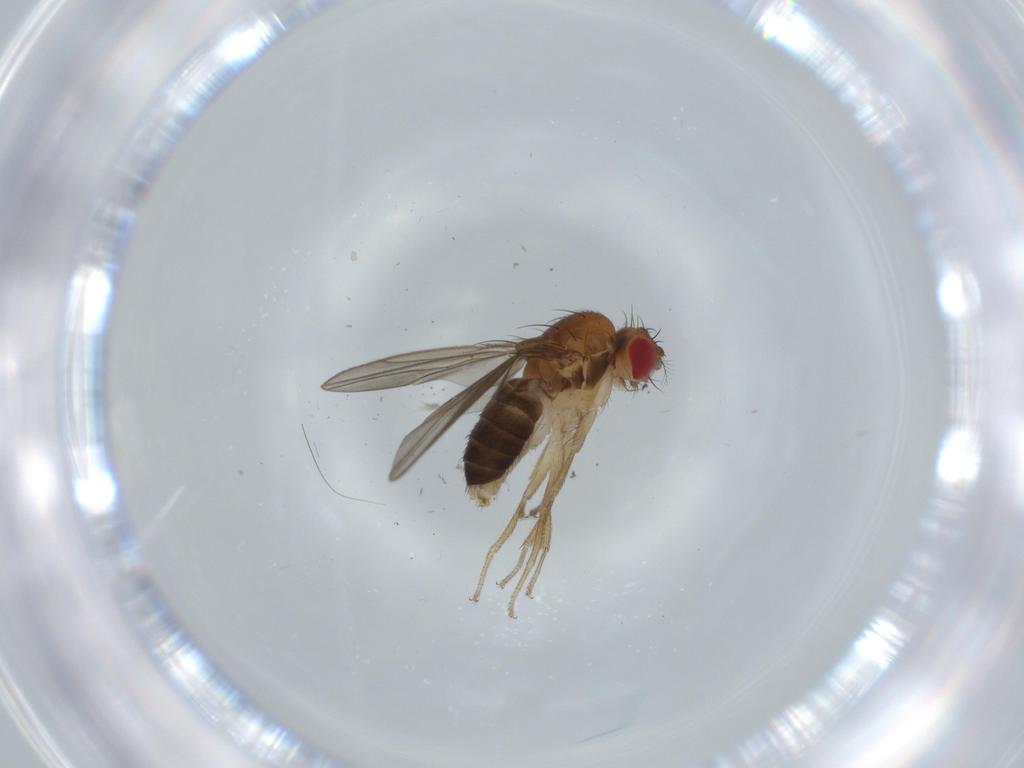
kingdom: Animalia
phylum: Arthropoda
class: Insecta
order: Diptera
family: Drosophilidae
